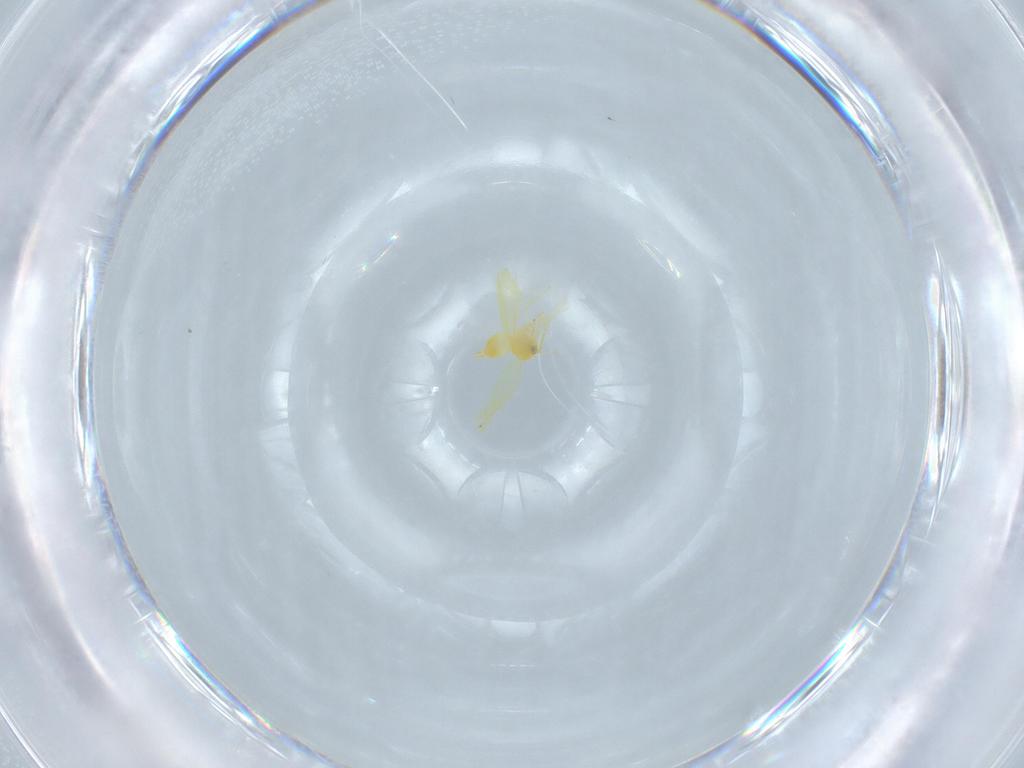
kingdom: Animalia
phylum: Arthropoda
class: Insecta
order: Hemiptera
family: Aleyrodidae
